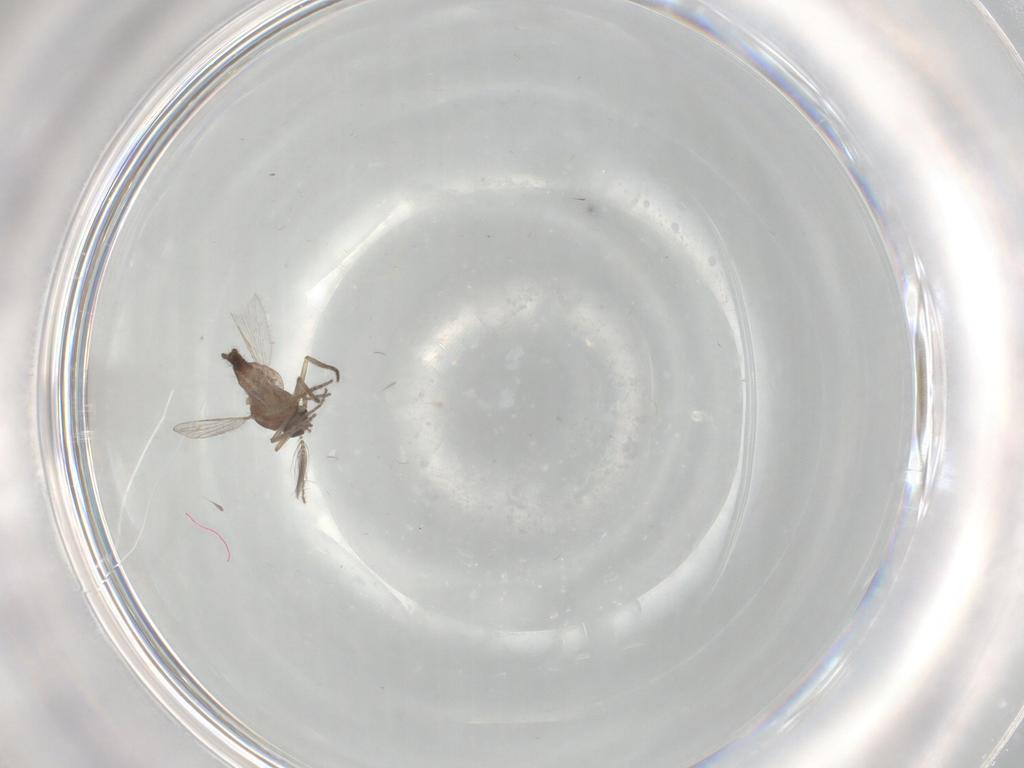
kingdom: Animalia
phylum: Arthropoda
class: Insecta
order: Diptera
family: Ceratopogonidae
